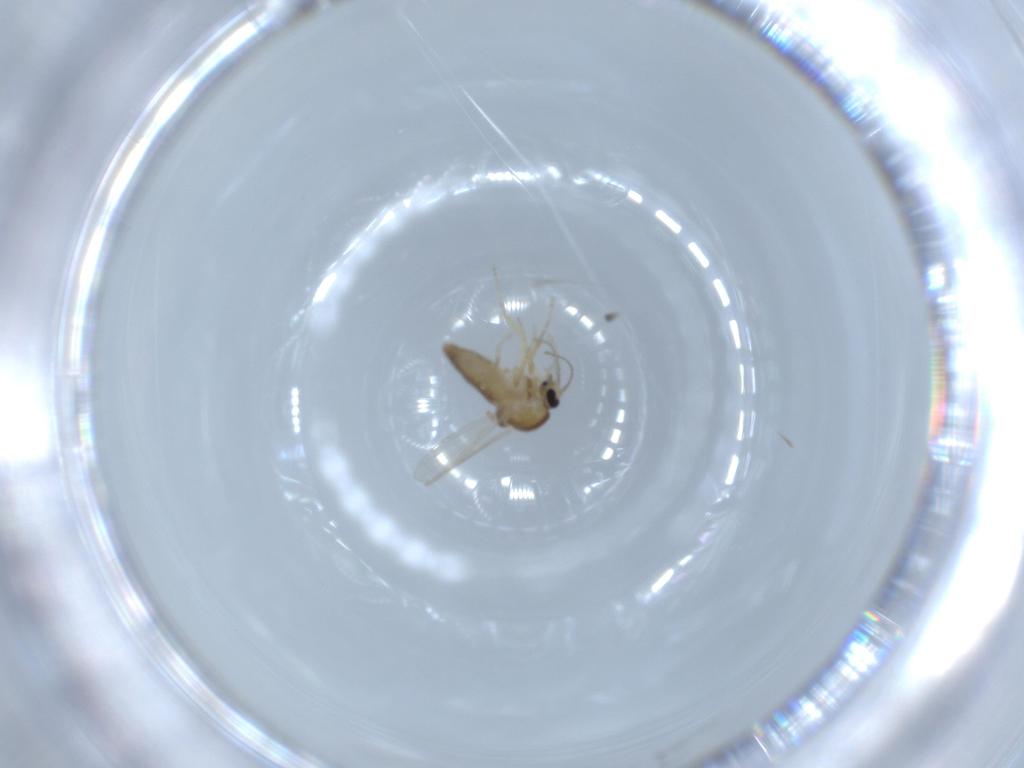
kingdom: Animalia
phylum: Arthropoda
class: Insecta
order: Diptera
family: Ceratopogonidae
